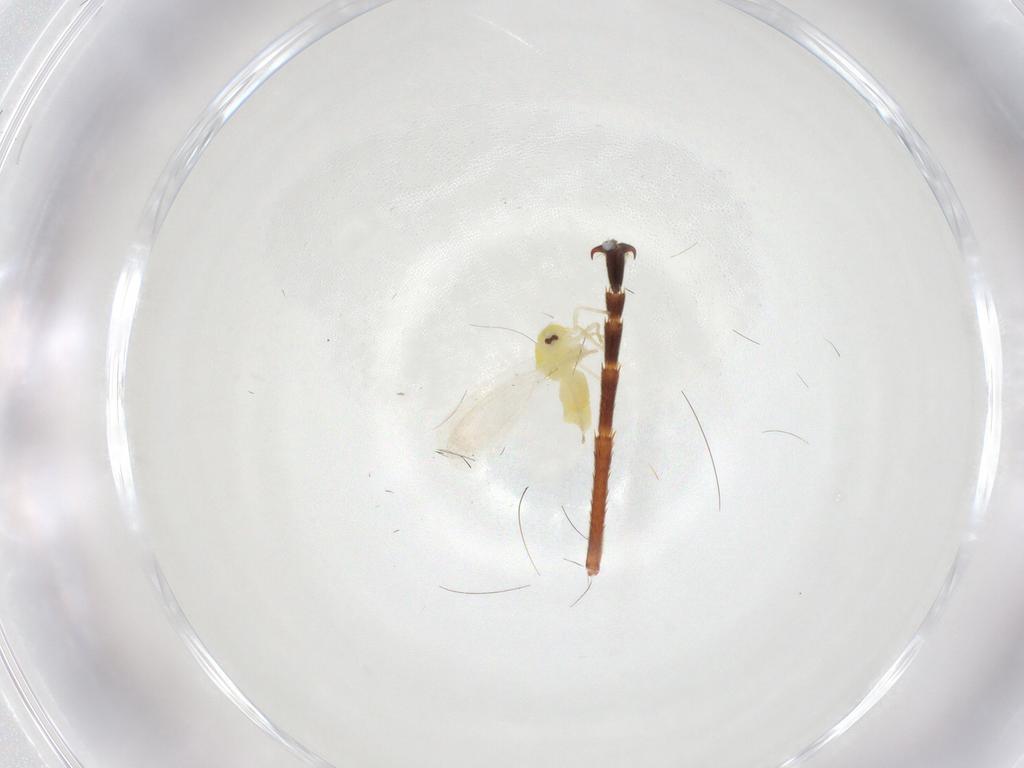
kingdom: Animalia
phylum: Arthropoda
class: Insecta
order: Hemiptera
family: Aleyrodidae
